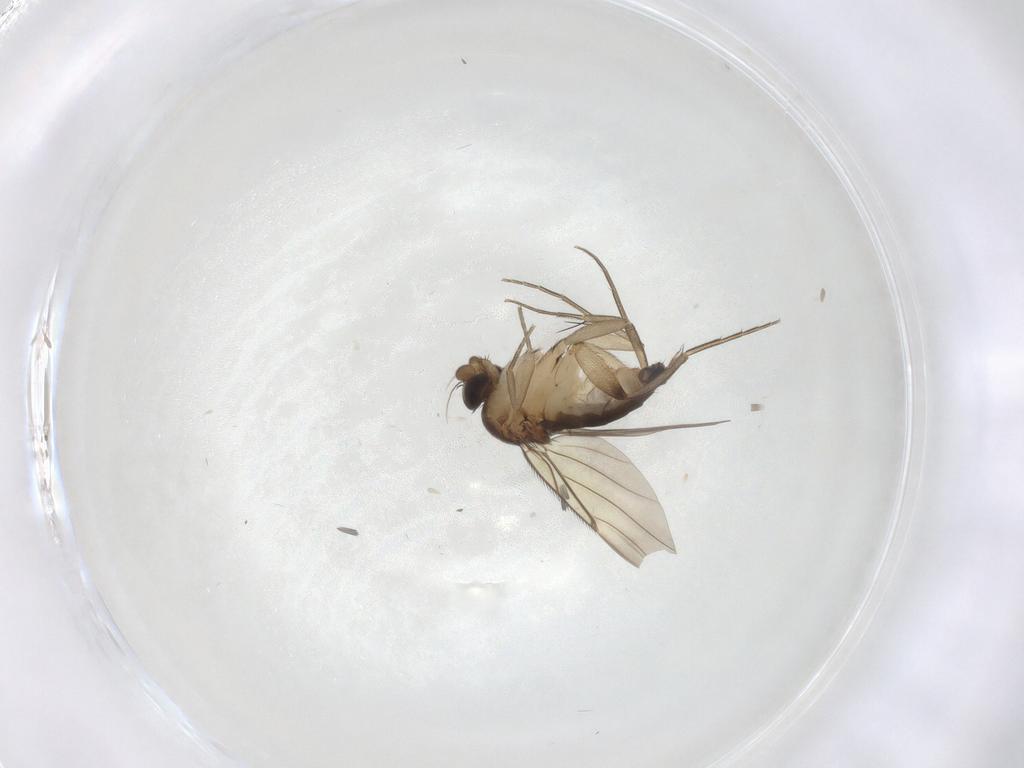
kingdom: Animalia
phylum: Arthropoda
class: Insecta
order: Diptera
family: Phoridae
